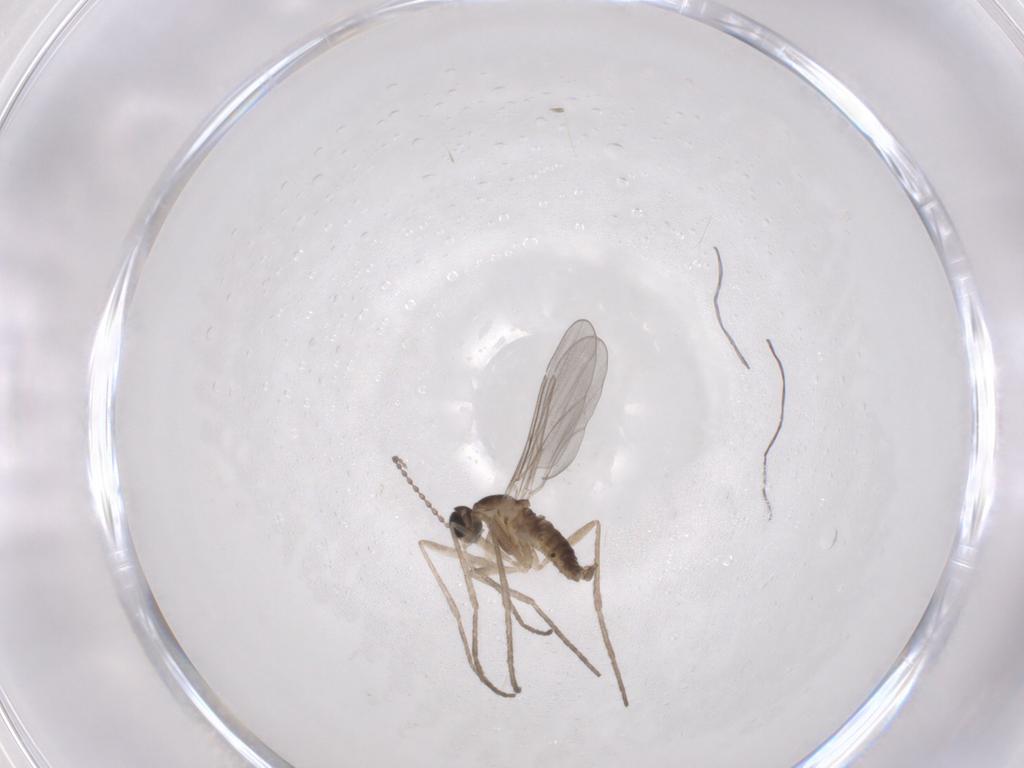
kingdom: Animalia
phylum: Arthropoda
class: Insecta
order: Diptera
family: Cecidomyiidae
